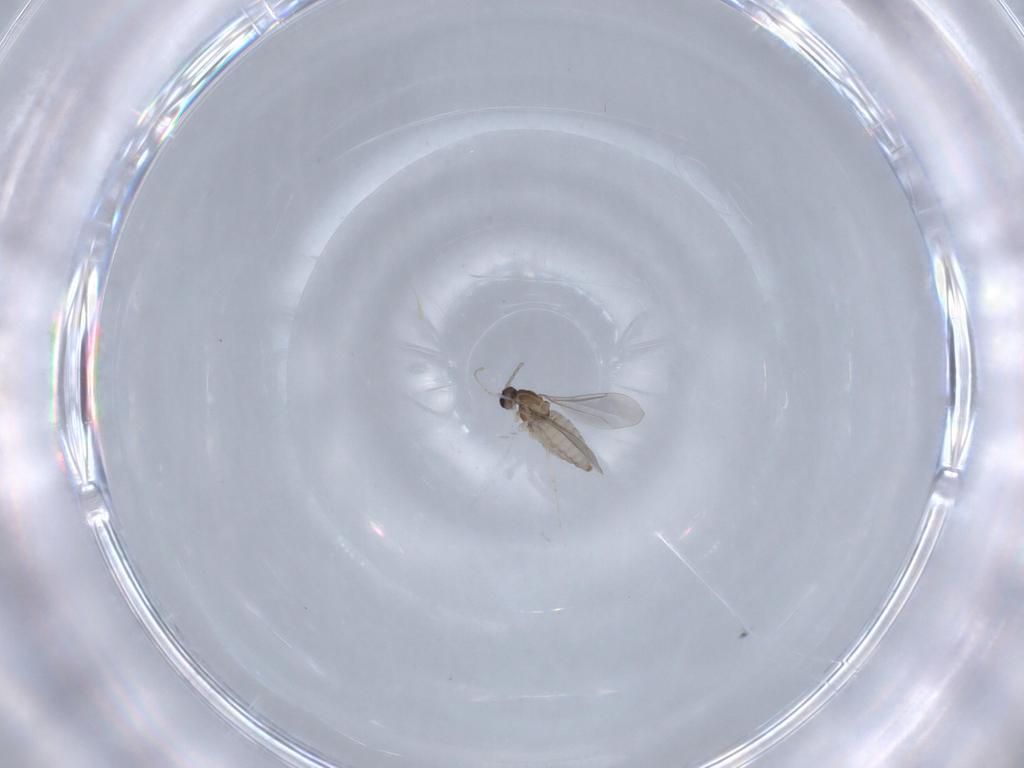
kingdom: Animalia
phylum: Arthropoda
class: Insecta
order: Diptera
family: Cecidomyiidae
